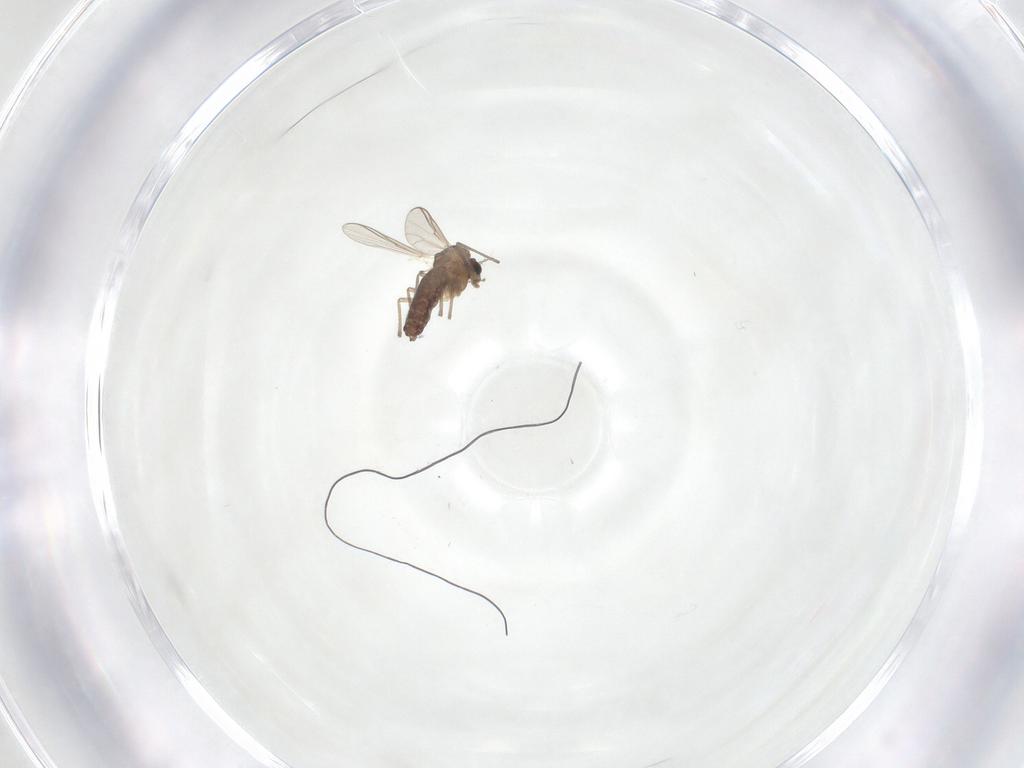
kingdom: Animalia
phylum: Arthropoda
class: Insecta
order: Diptera
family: Chironomidae
